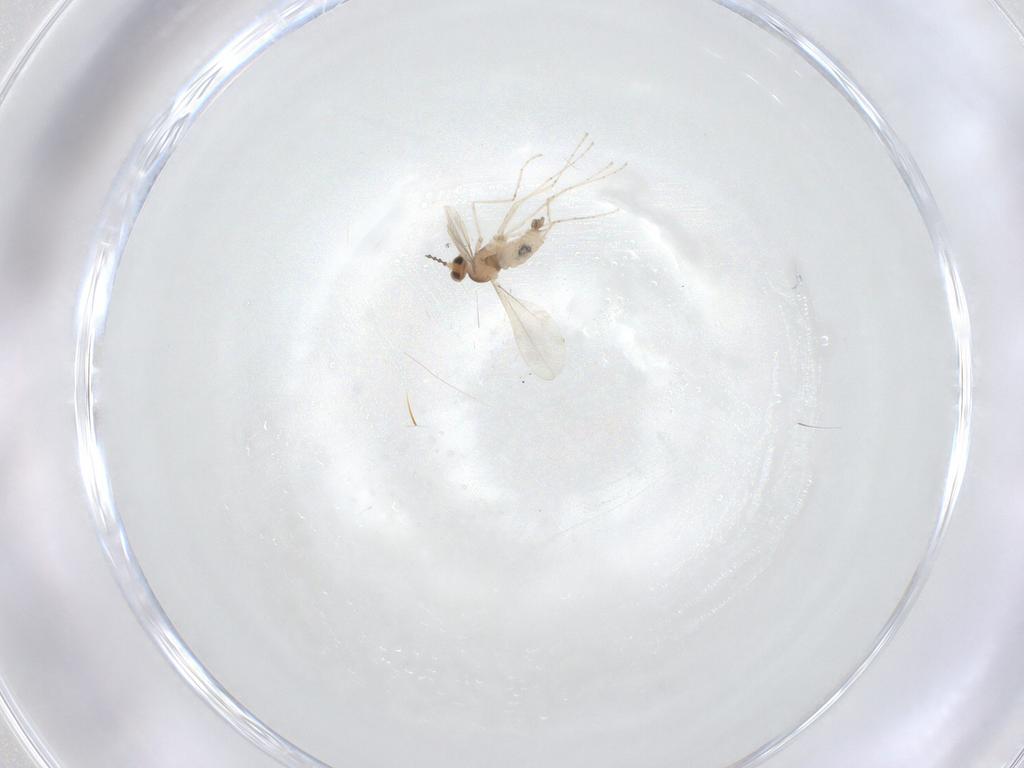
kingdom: Animalia
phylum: Arthropoda
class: Insecta
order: Diptera
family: Cecidomyiidae
